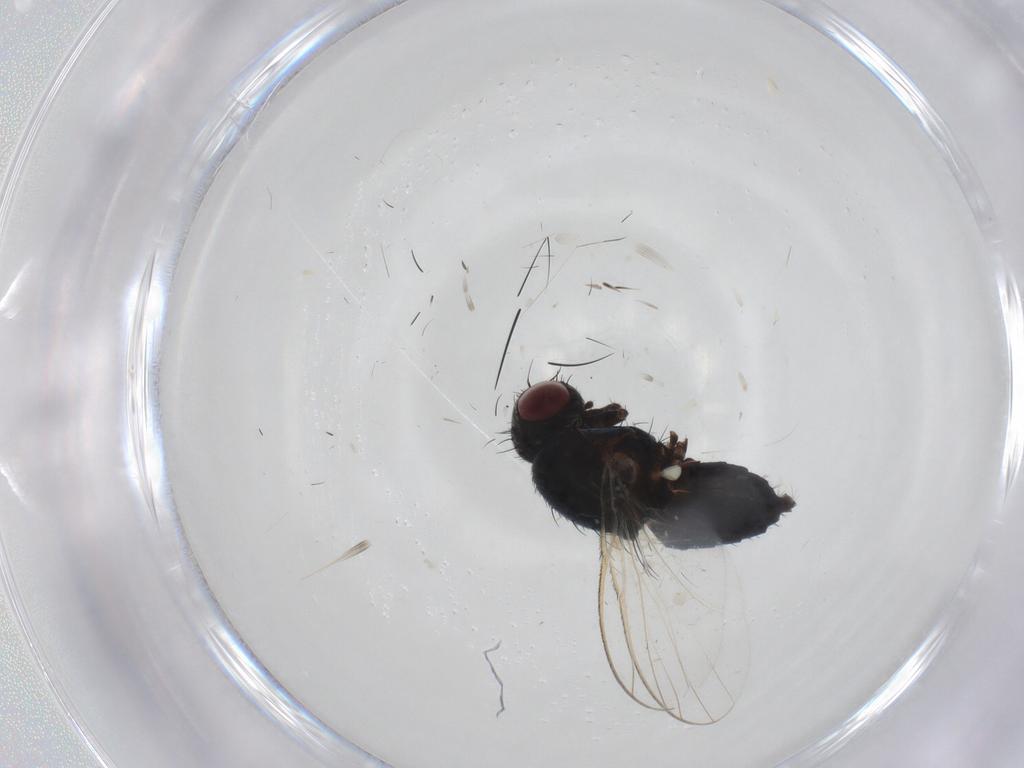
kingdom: Animalia
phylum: Arthropoda
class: Insecta
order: Diptera
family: Carnidae
